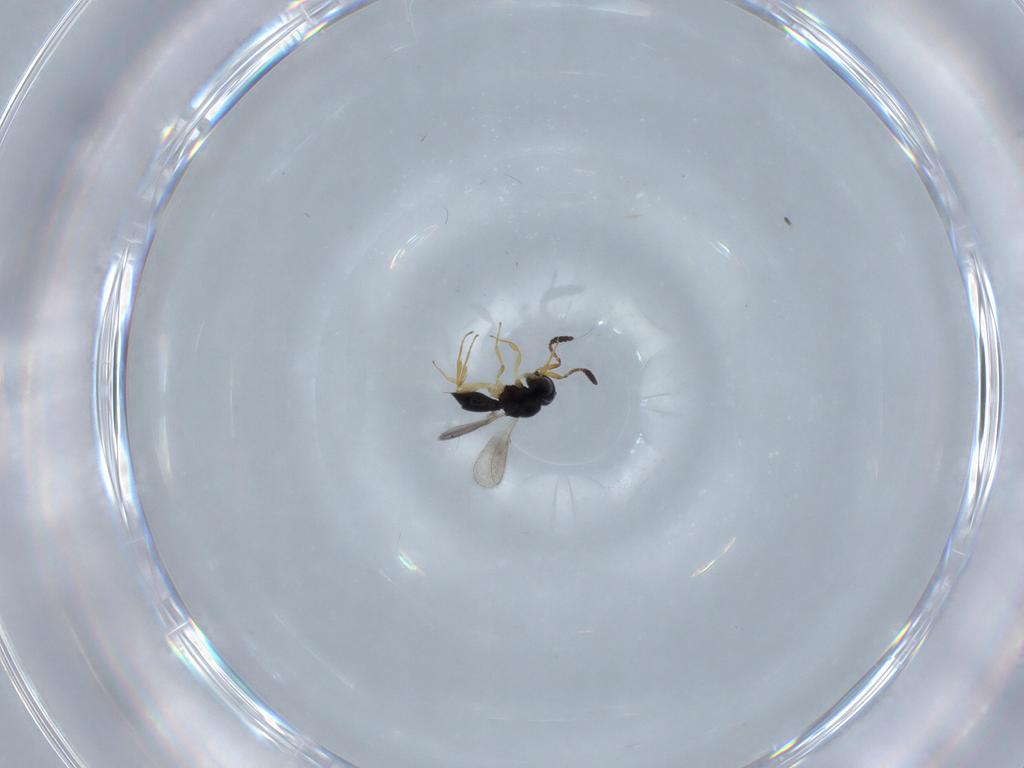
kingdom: Animalia
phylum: Arthropoda
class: Insecta
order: Hymenoptera
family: Scelionidae
